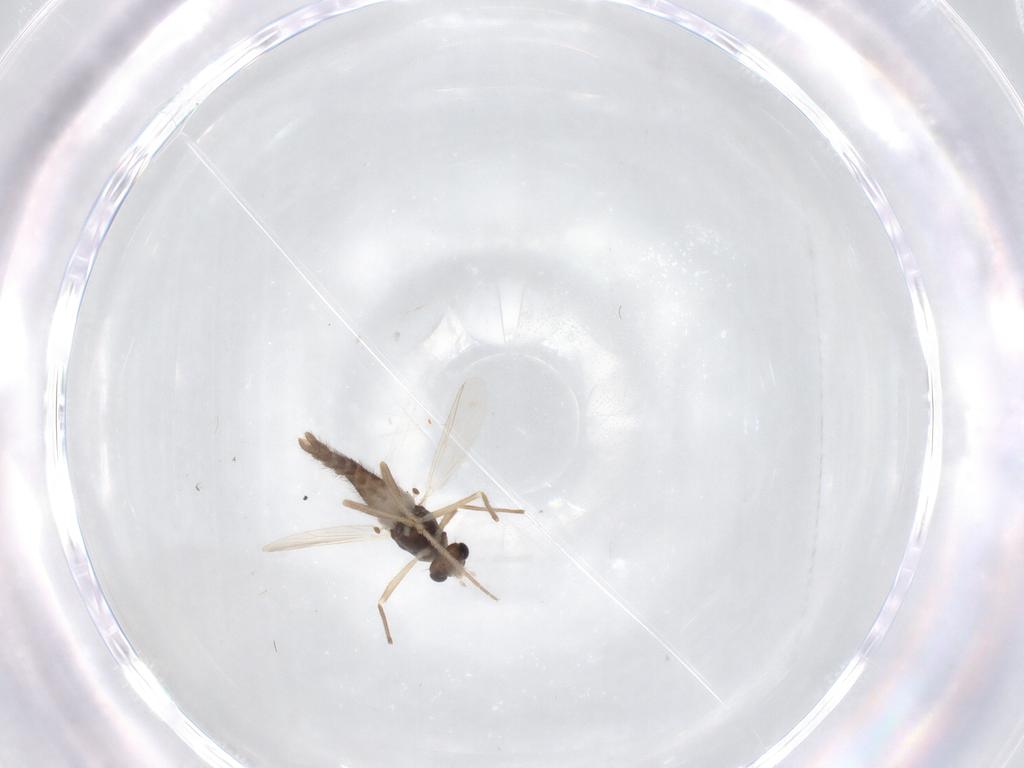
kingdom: Animalia
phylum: Arthropoda
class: Insecta
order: Diptera
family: Chironomidae
